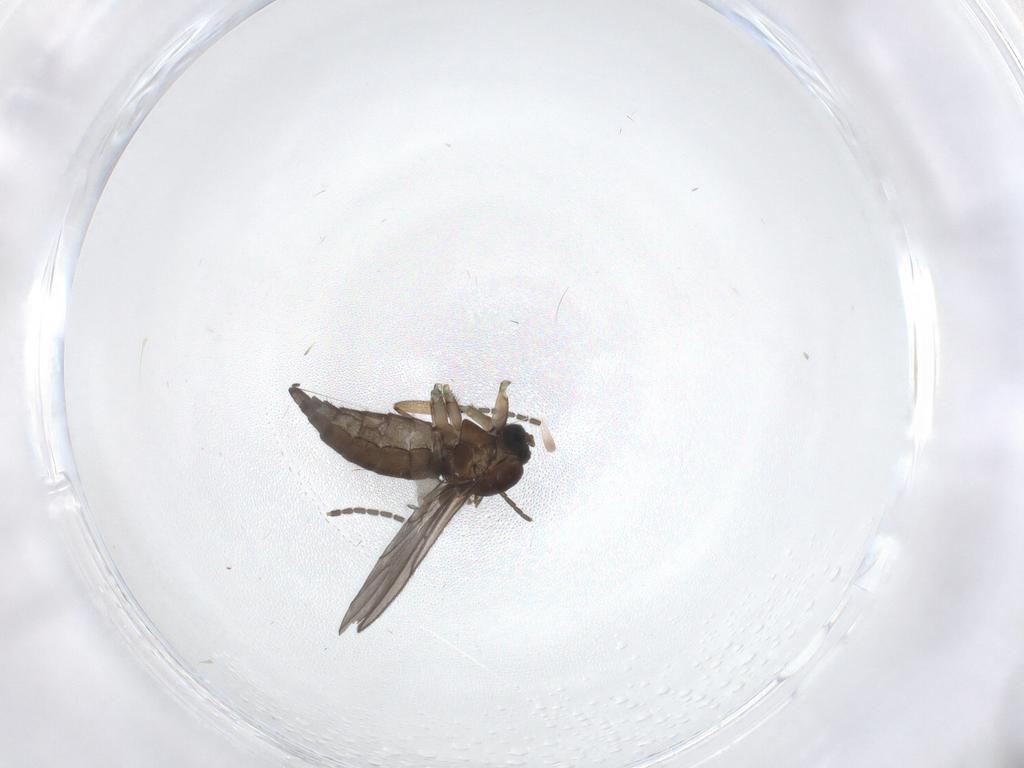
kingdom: Animalia
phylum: Arthropoda
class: Insecta
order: Diptera
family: Sciaridae
